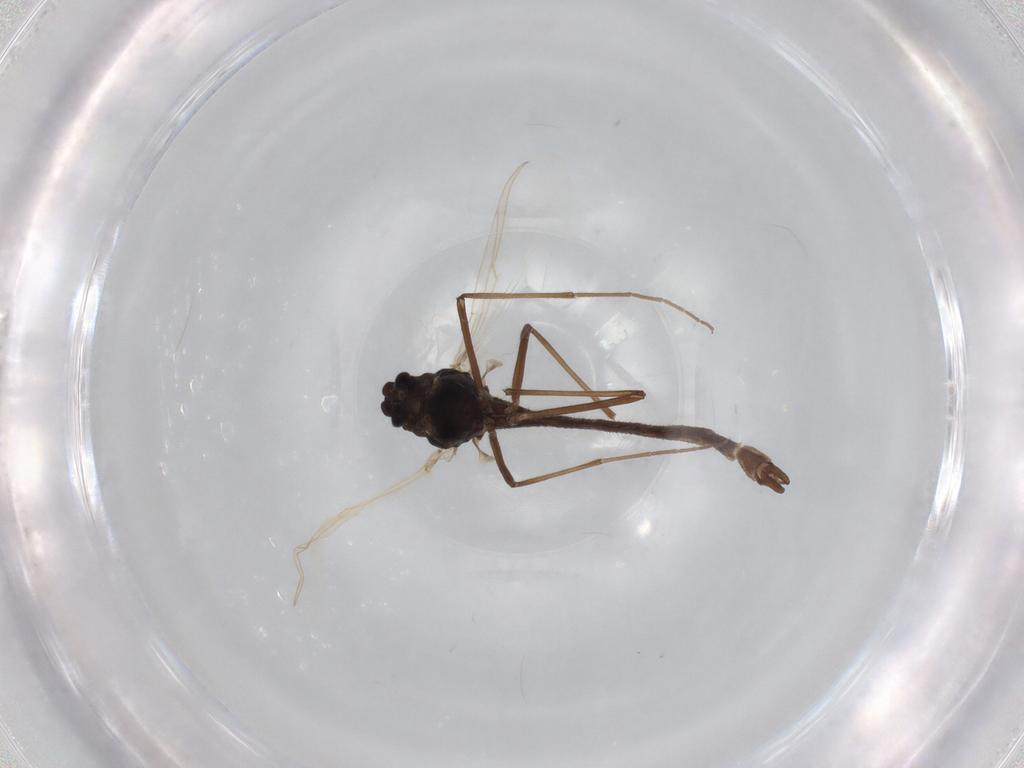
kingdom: Animalia
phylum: Arthropoda
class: Insecta
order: Diptera
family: Chironomidae
